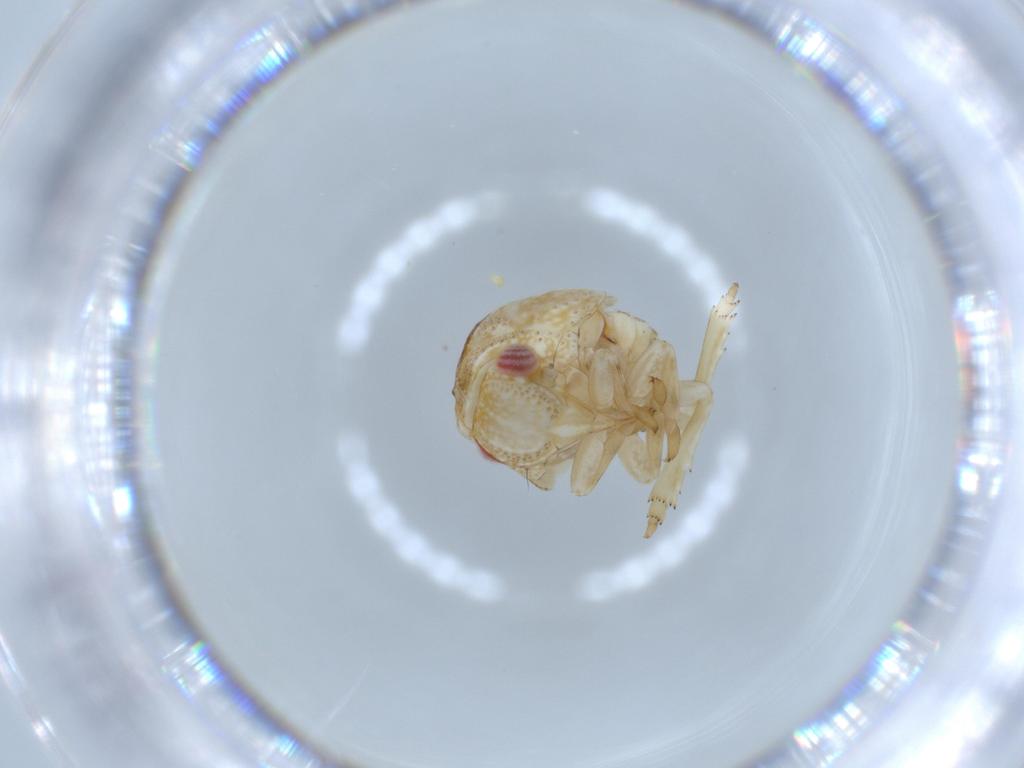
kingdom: Animalia
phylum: Arthropoda
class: Insecta
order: Hemiptera
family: Acanaloniidae
